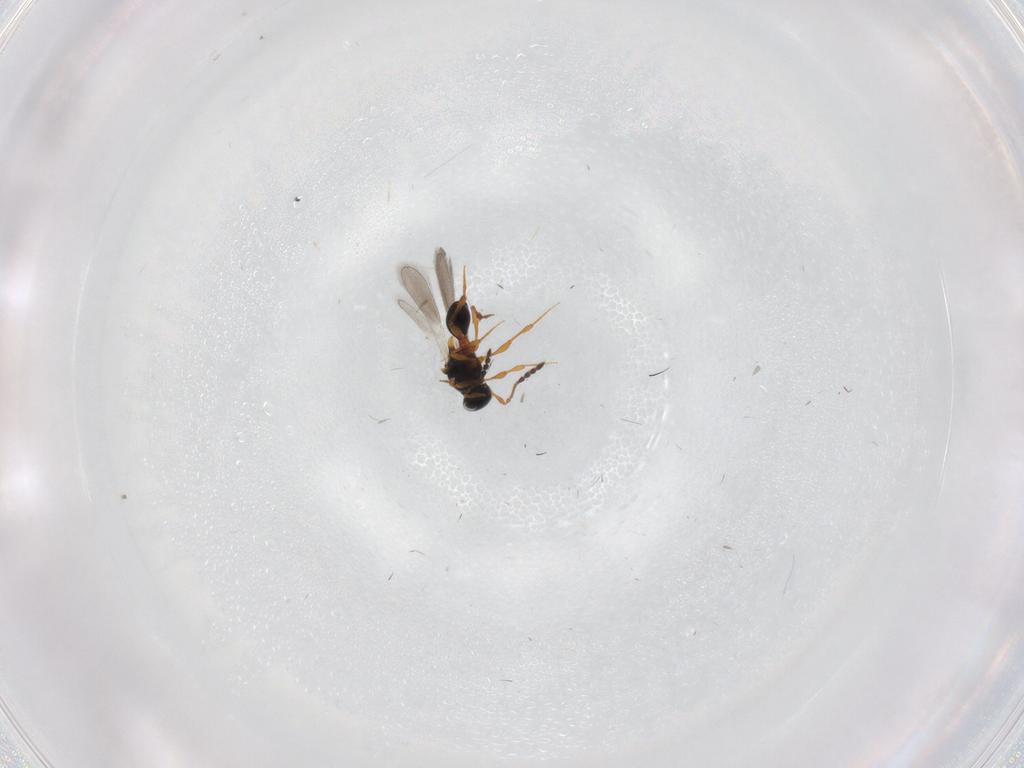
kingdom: Animalia
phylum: Arthropoda
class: Insecta
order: Hymenoptera
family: Platygastridae
